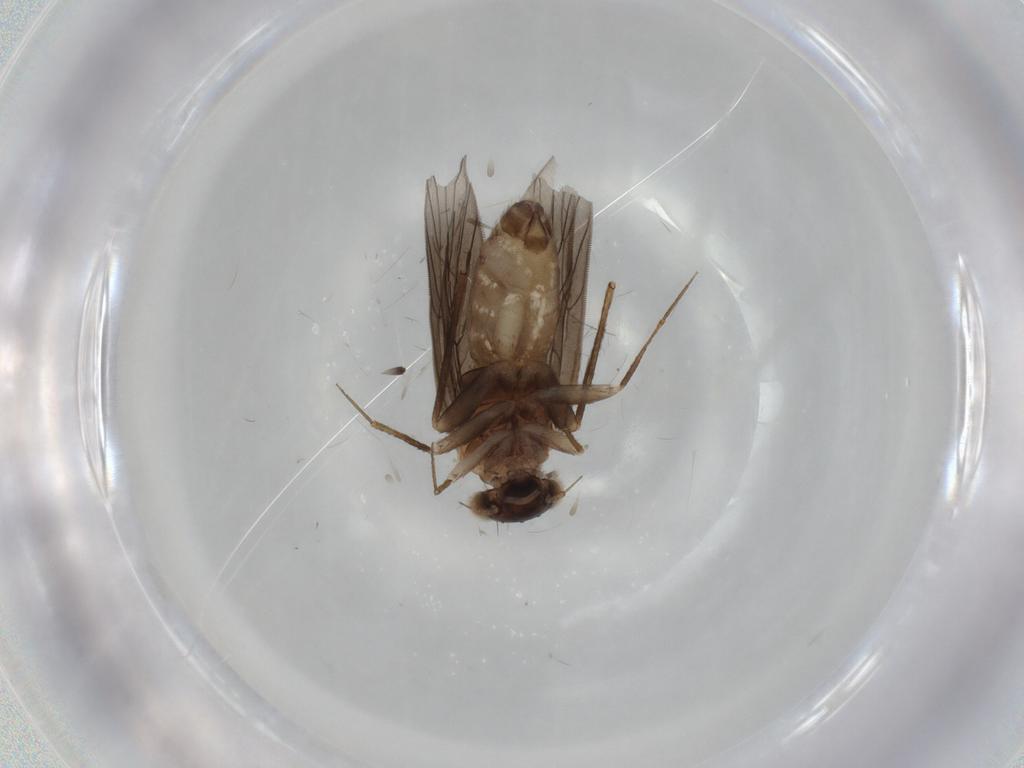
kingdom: Animalia
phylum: Arthropoda
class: Insecta
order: Psocodea
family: Lepidopsocidae
